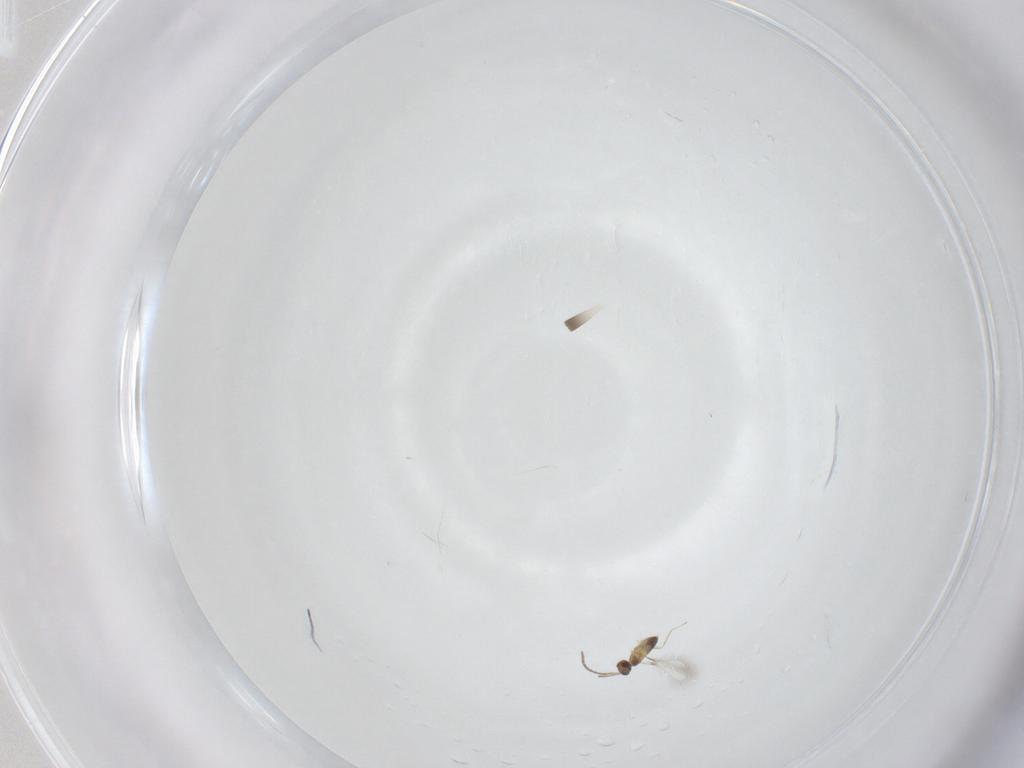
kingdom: Animalia
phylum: Arthropoda
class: Insecta
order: Hymenoptera
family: Mymaridae
